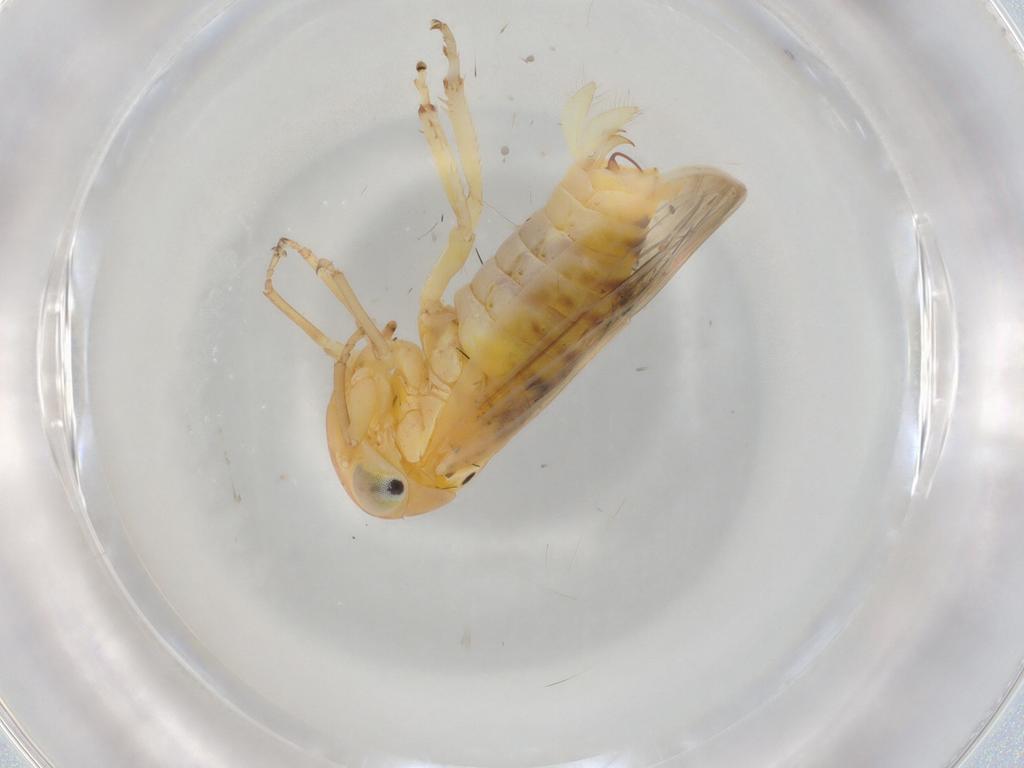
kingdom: Animalia
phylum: Arthropoda
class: Insecta
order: Hemiptera
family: Cicadellidae
